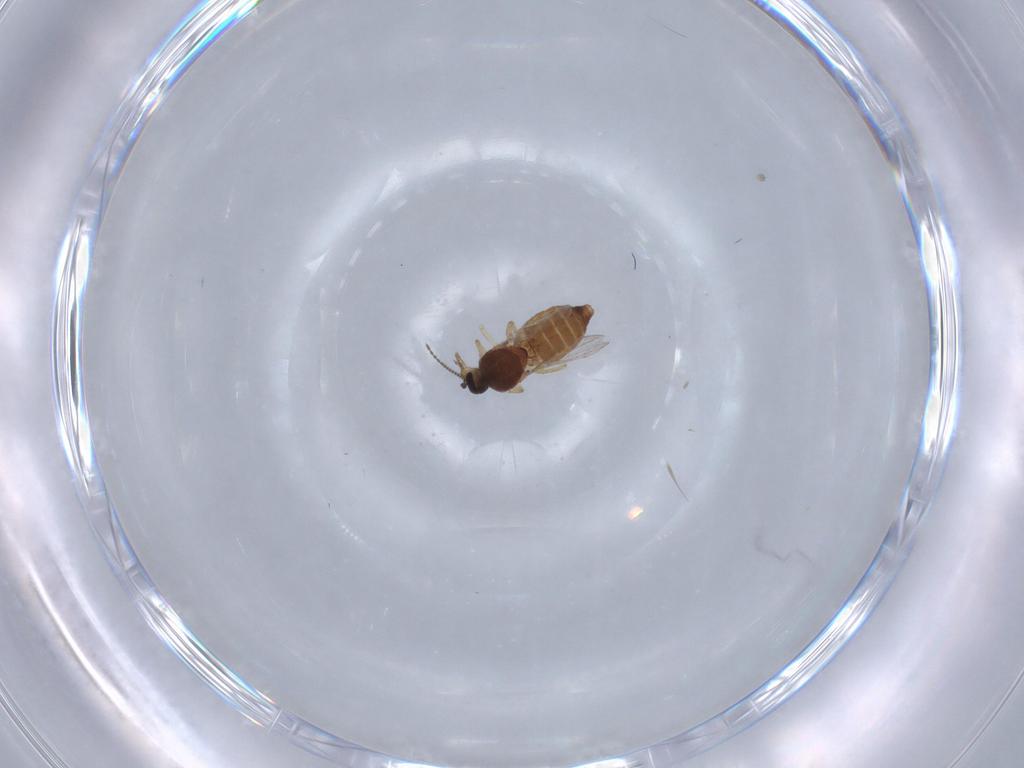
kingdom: Animalia
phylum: Arthropoda
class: Insecta
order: Diptera
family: Ceratopogonidae
